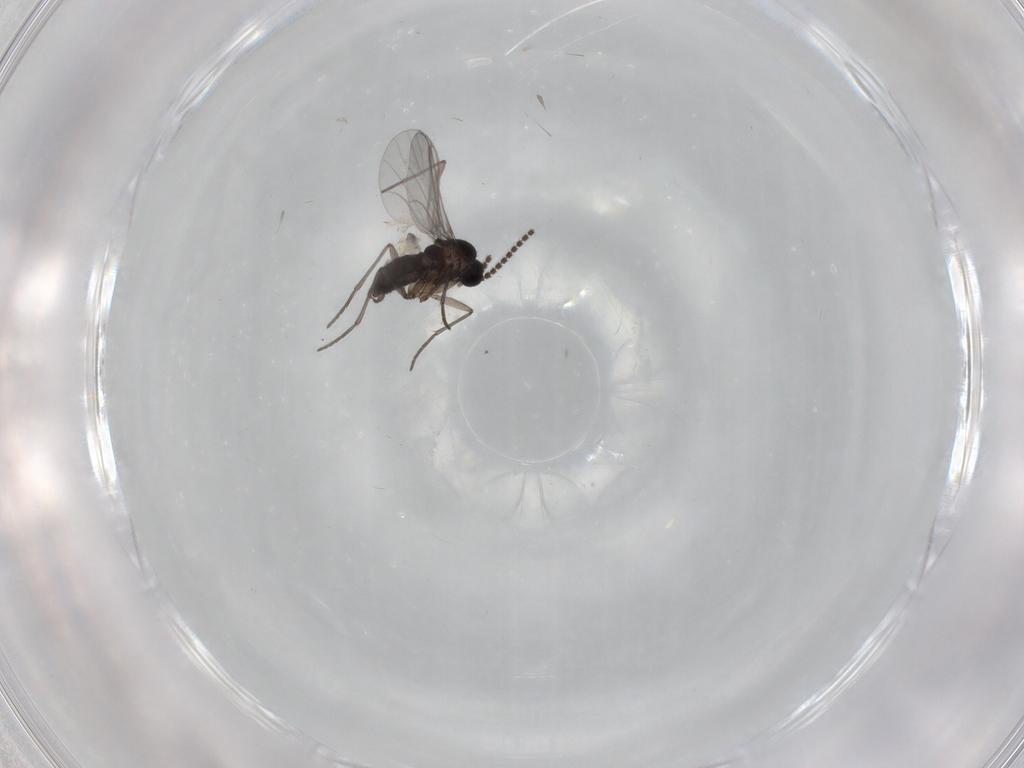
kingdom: Animalia
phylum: Arthropoda
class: Insecta
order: Diptera
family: Sciaridae
